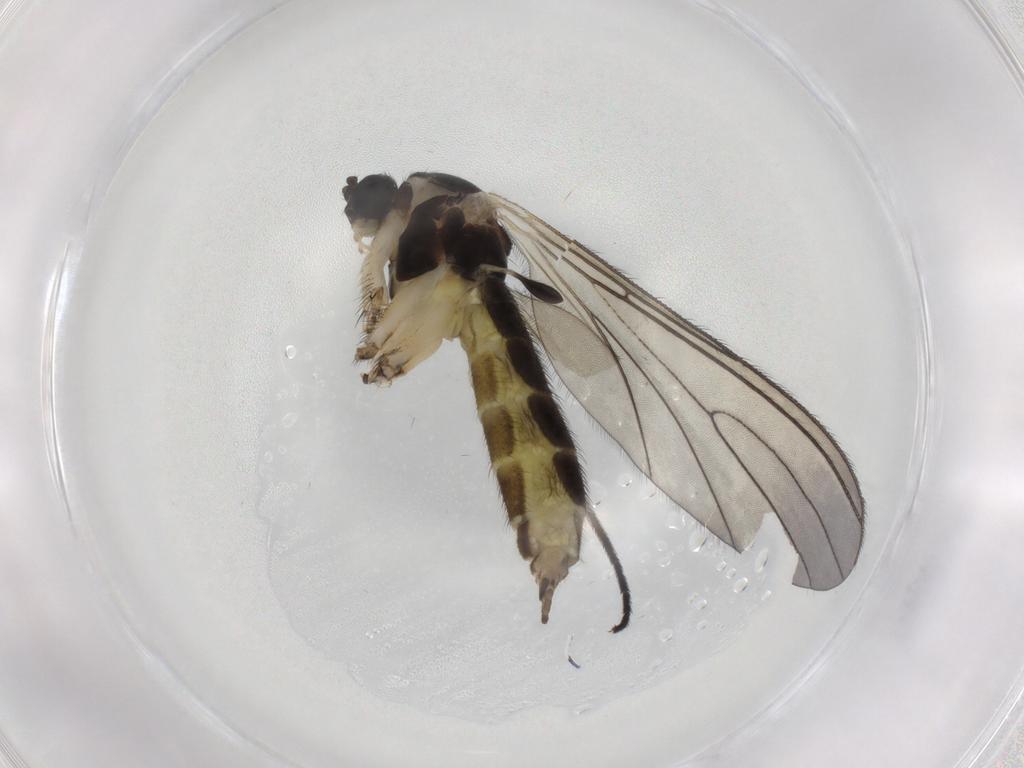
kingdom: Animalia
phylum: Arthropoda
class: Insecta
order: Diptera
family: Sciaridae
